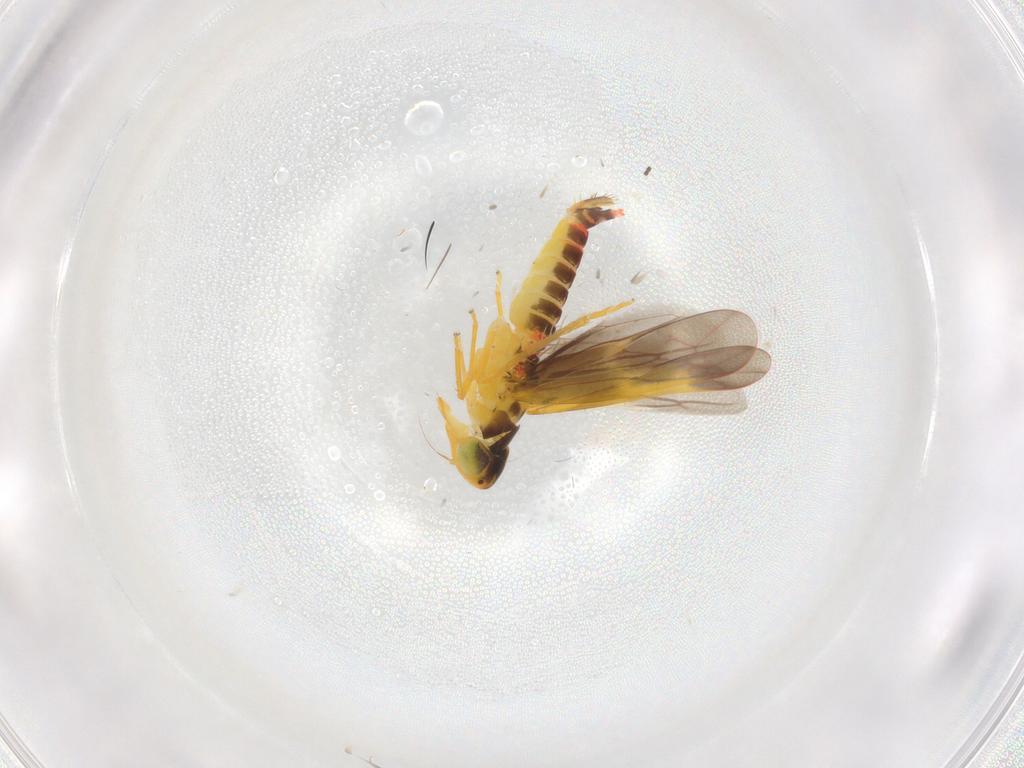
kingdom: Animalia
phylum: Arthropoda
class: Insecta
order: Hemiptera
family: Cicadellidae
